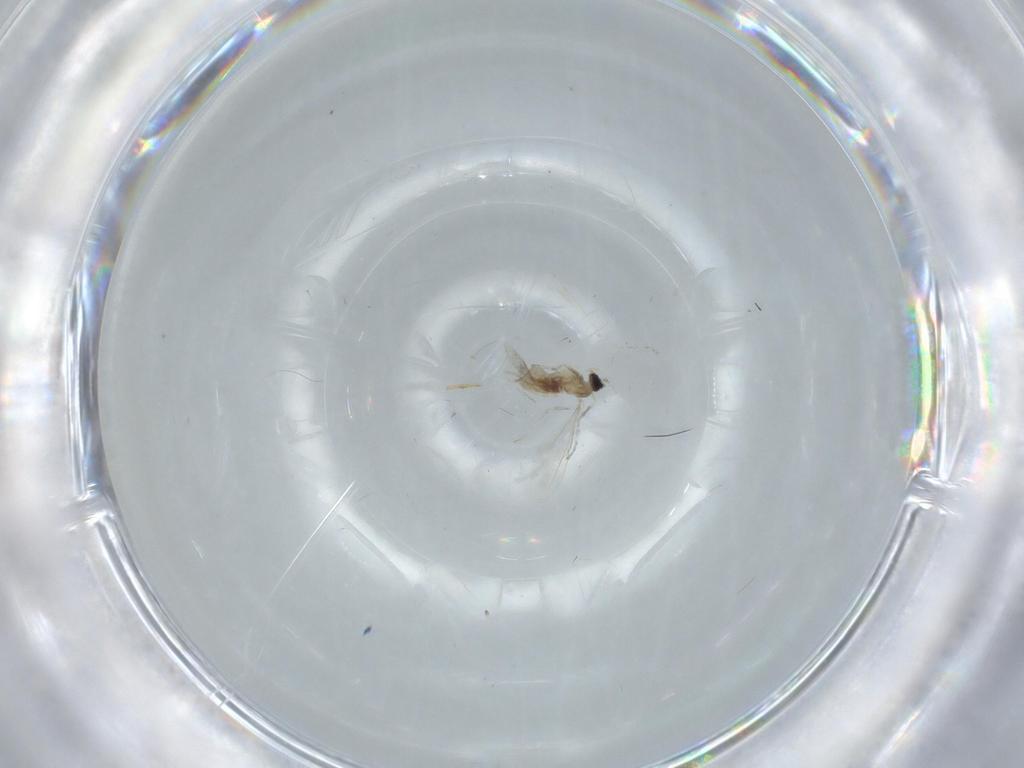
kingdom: Animalia
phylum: Arthropoda
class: Insecta
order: Diptera
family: Cecidomyiidae
